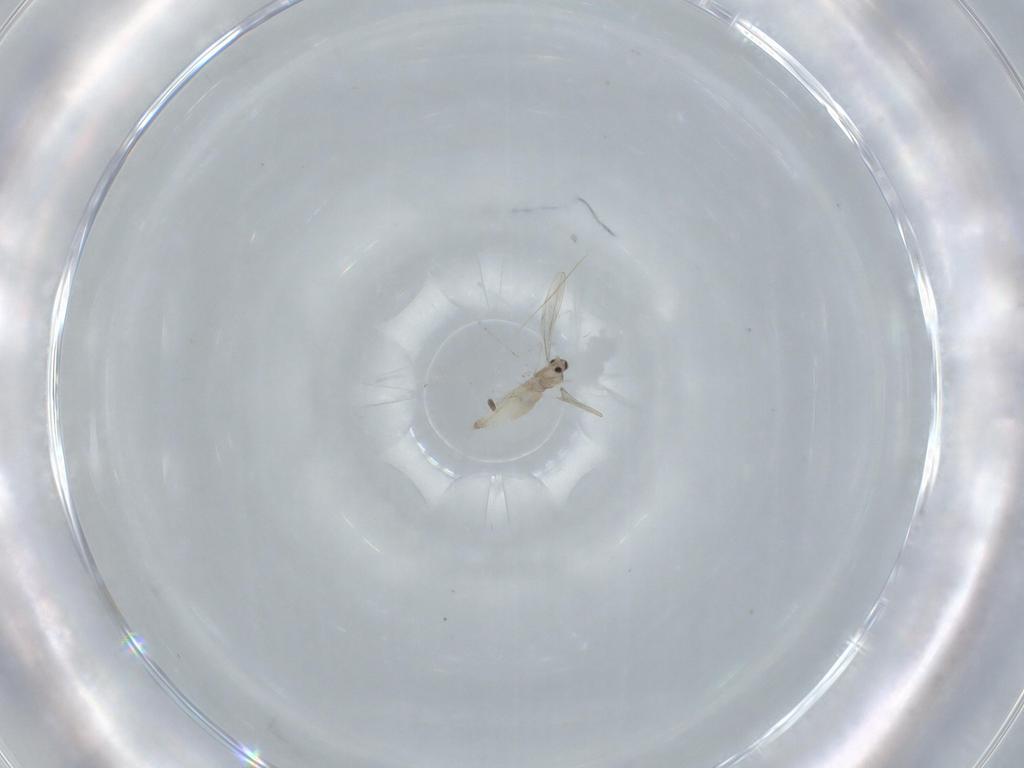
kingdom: Animalia
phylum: Arthropoda
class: Insecta
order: Diptera
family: Cecidomyiidae
